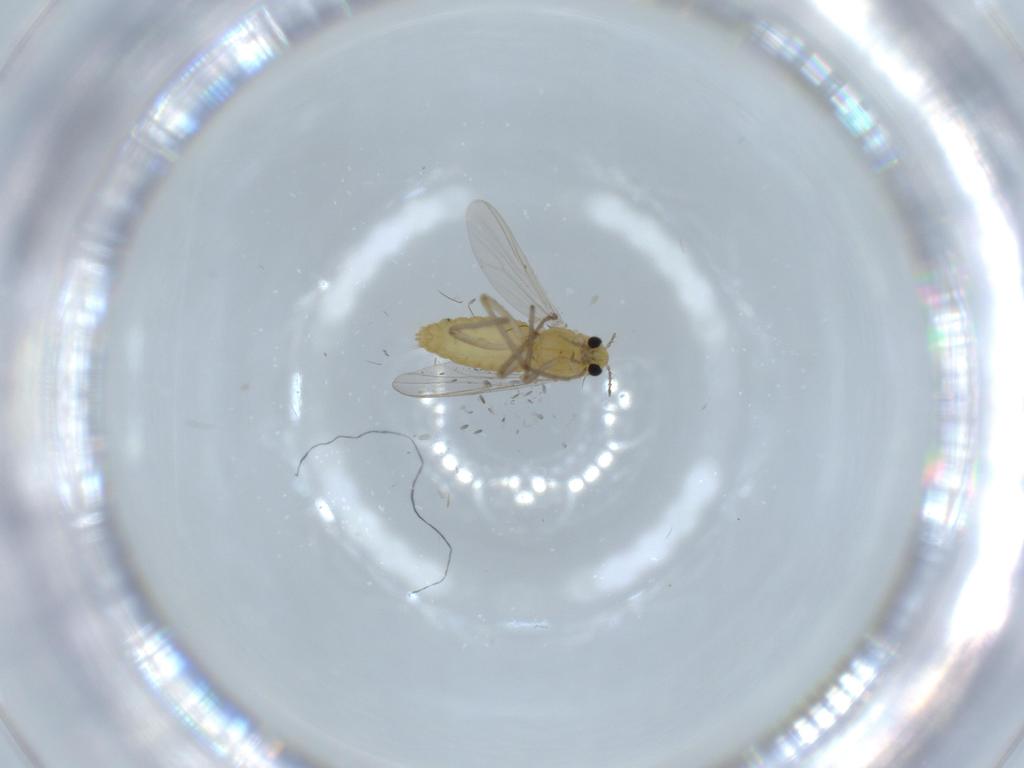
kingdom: Animalia
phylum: Arthropoda
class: Insecta
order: Diptera
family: Chironomidae
